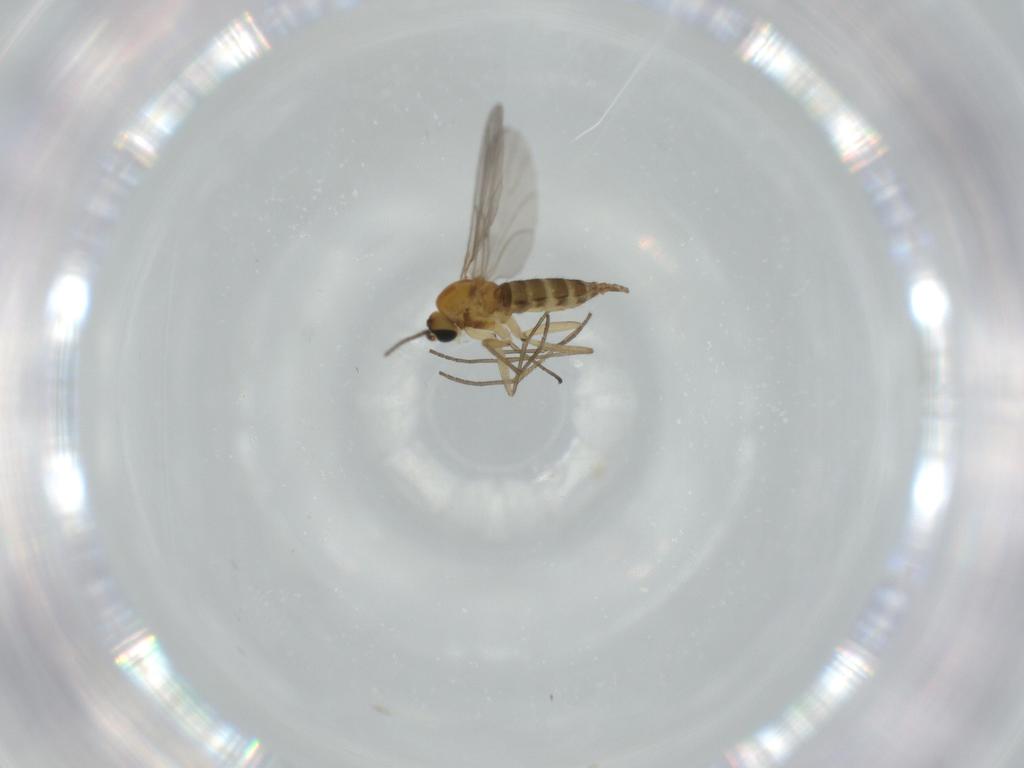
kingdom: Animalia
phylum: Arthropoda
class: Insecta
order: Diptera
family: Sciaridae
